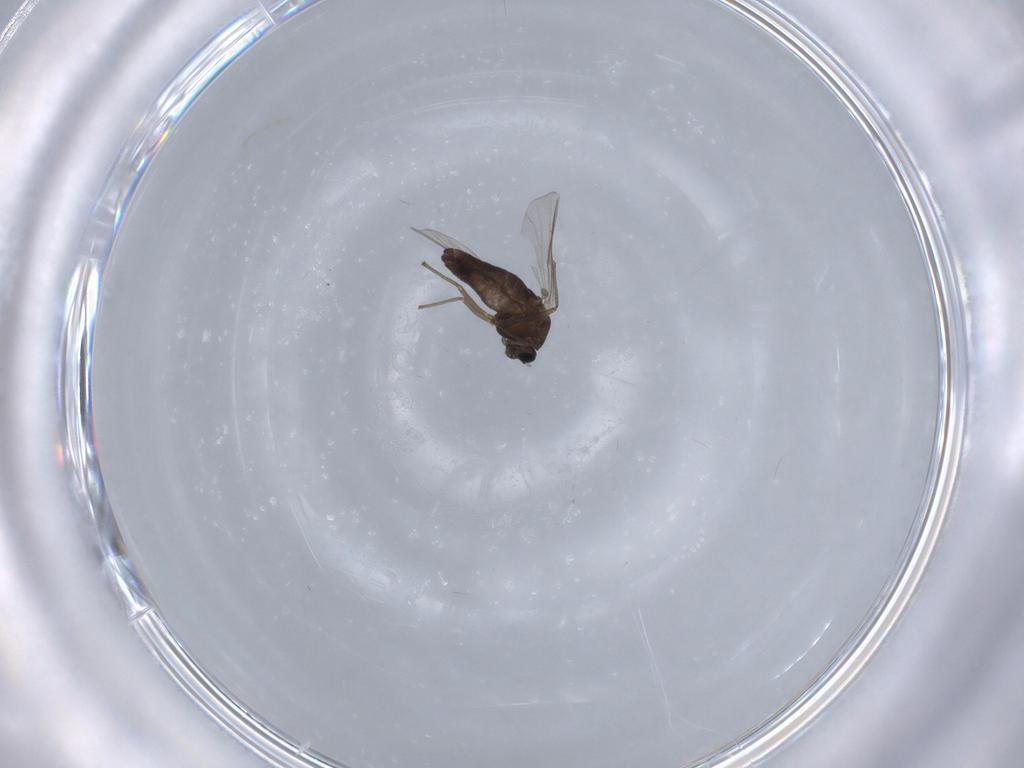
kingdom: Animalia
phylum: Arthropoda
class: Insecta
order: Diptera
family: Chironomidae
